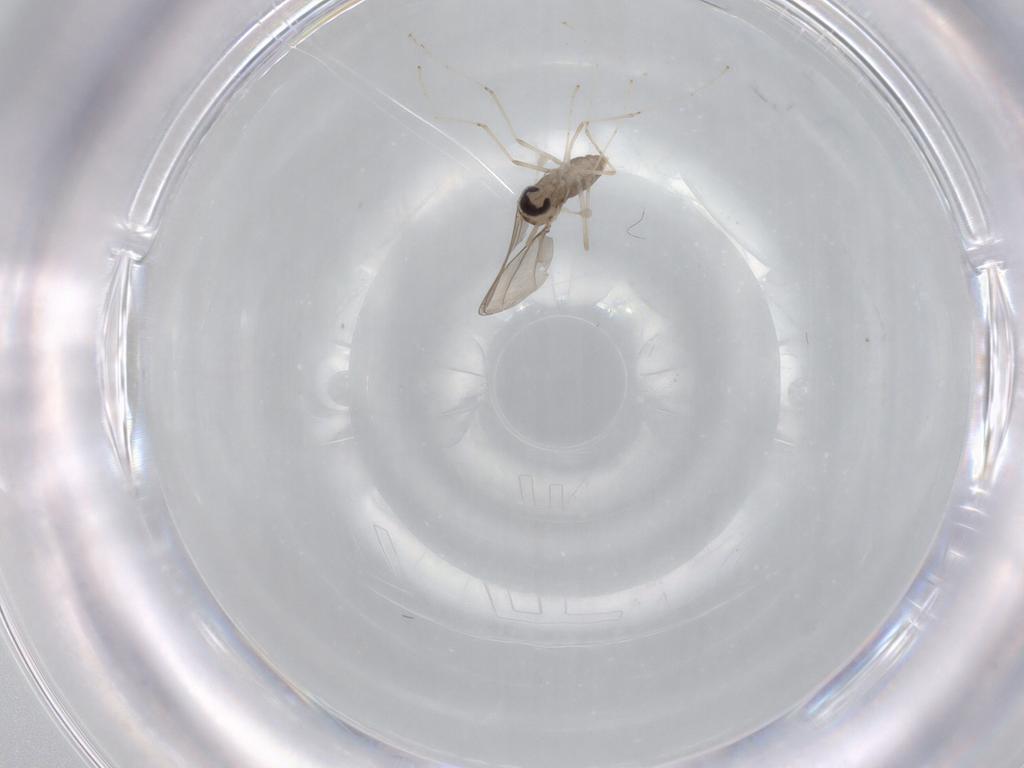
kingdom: Animalia
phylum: Arthropoda
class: Insecta
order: Diptera
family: Cecidomyiidae
